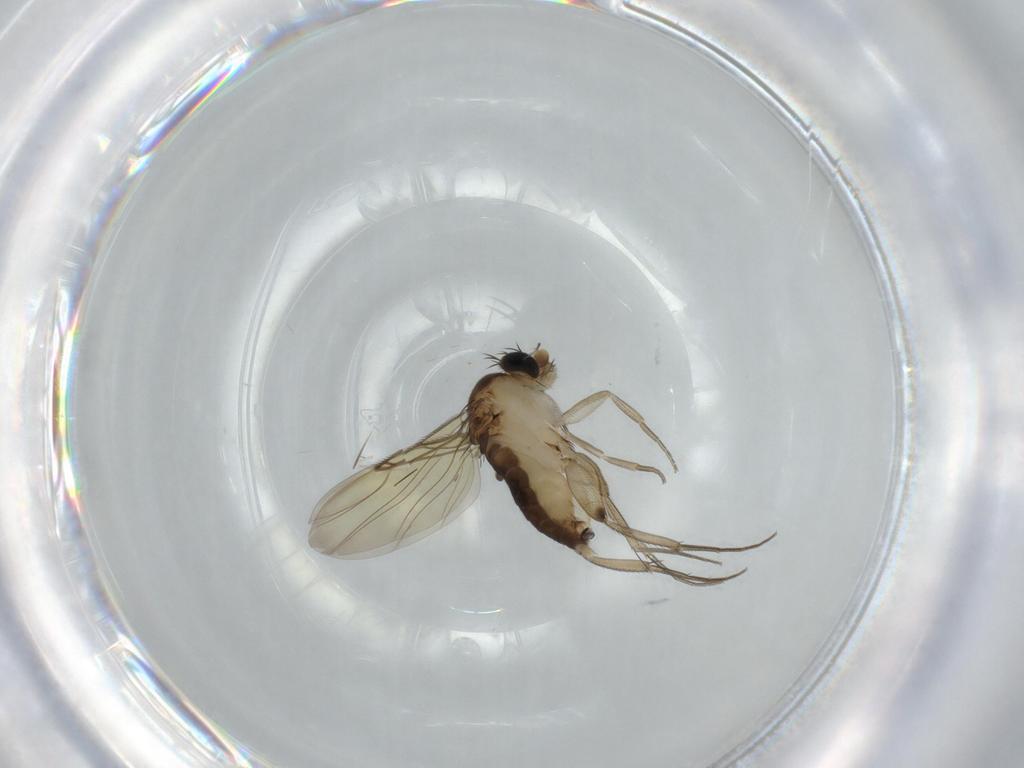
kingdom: Animalia
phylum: Arthropoda
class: Insecta
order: Diptera
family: Phoridae
